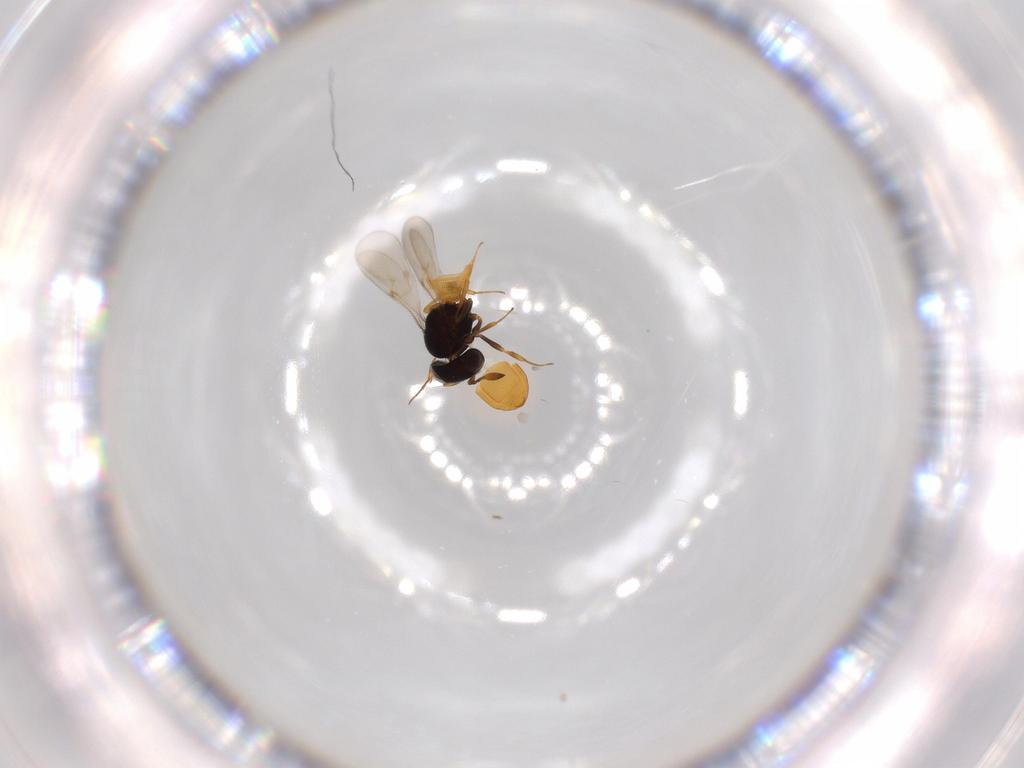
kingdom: Animalia
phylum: Arthropoda
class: Insecta
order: Hymenoptera
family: Scelionidae
